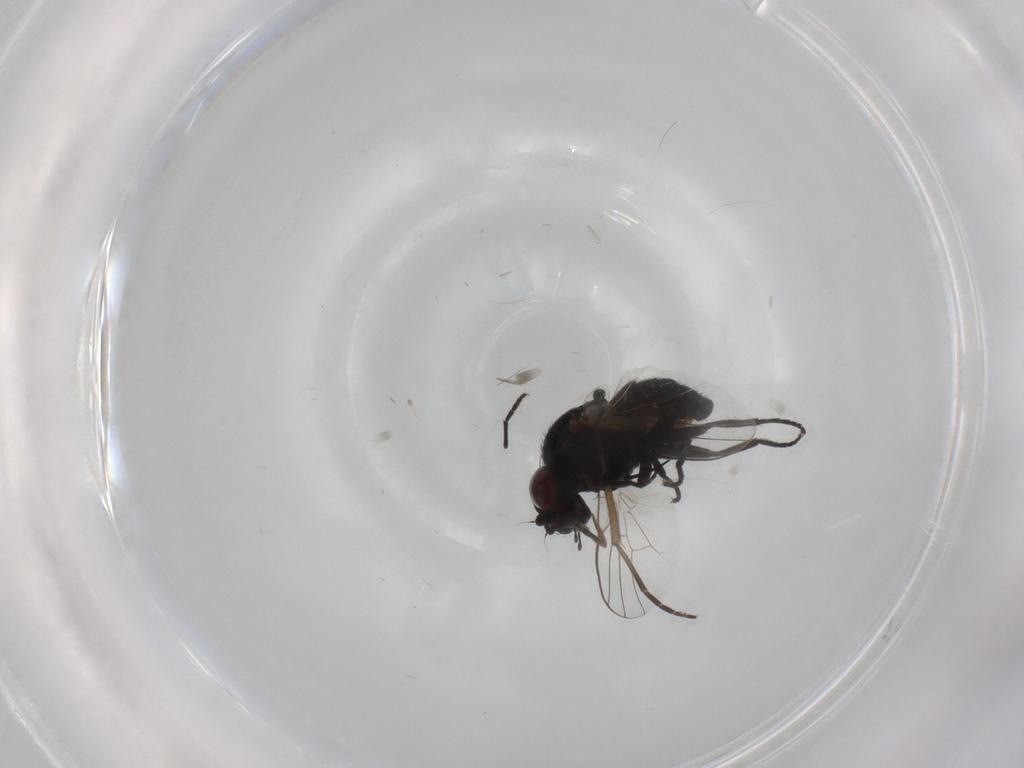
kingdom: Animalia
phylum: Arthropoda
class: Insecta
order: Diptera
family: Agromyzidae
